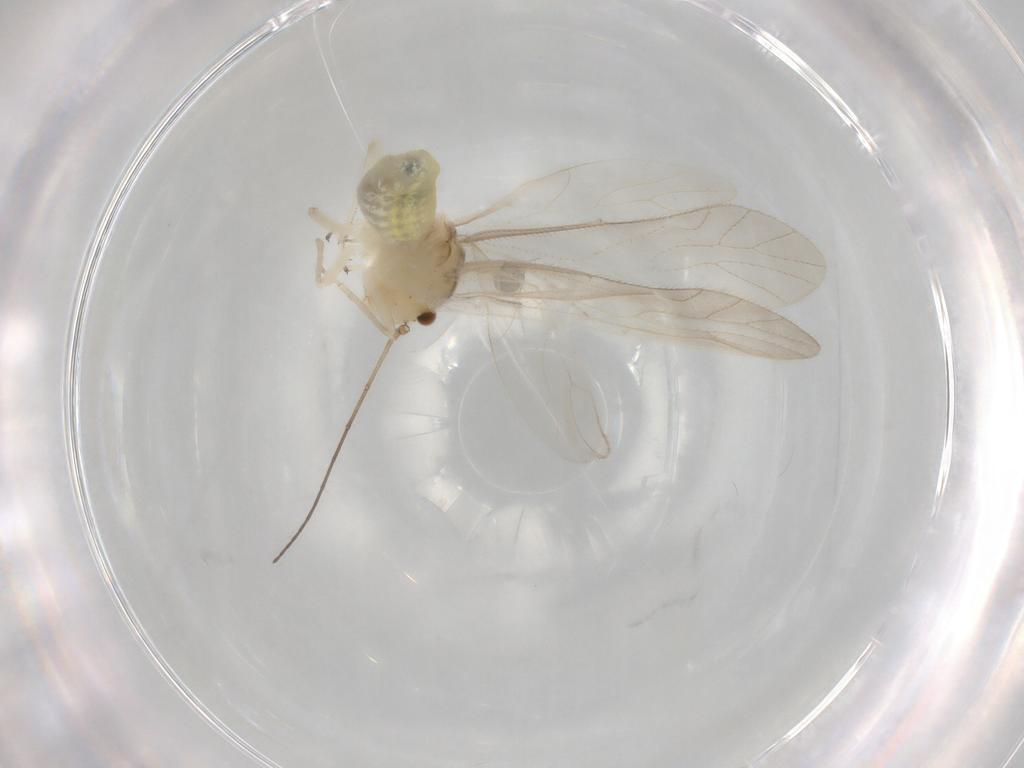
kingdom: Animalia
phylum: Arthropoda
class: Insecta
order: Psocodea
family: Caeciliusidae
